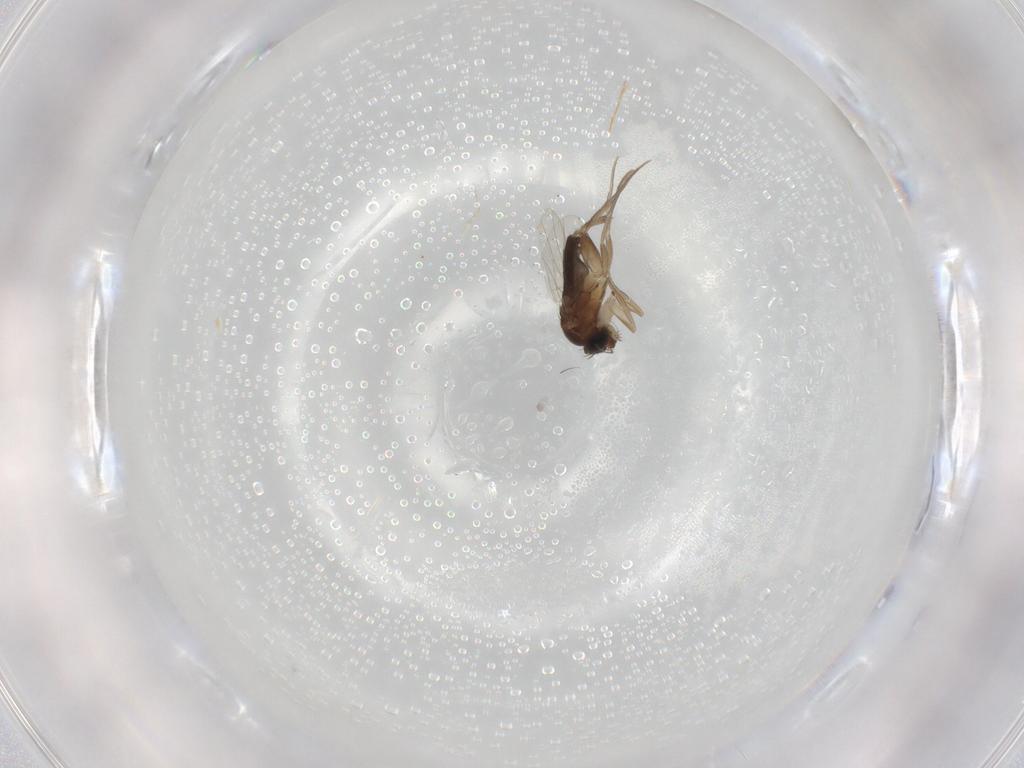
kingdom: Animalia
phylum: Arthropoda
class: Insecta
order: Diptera
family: Phoridae
